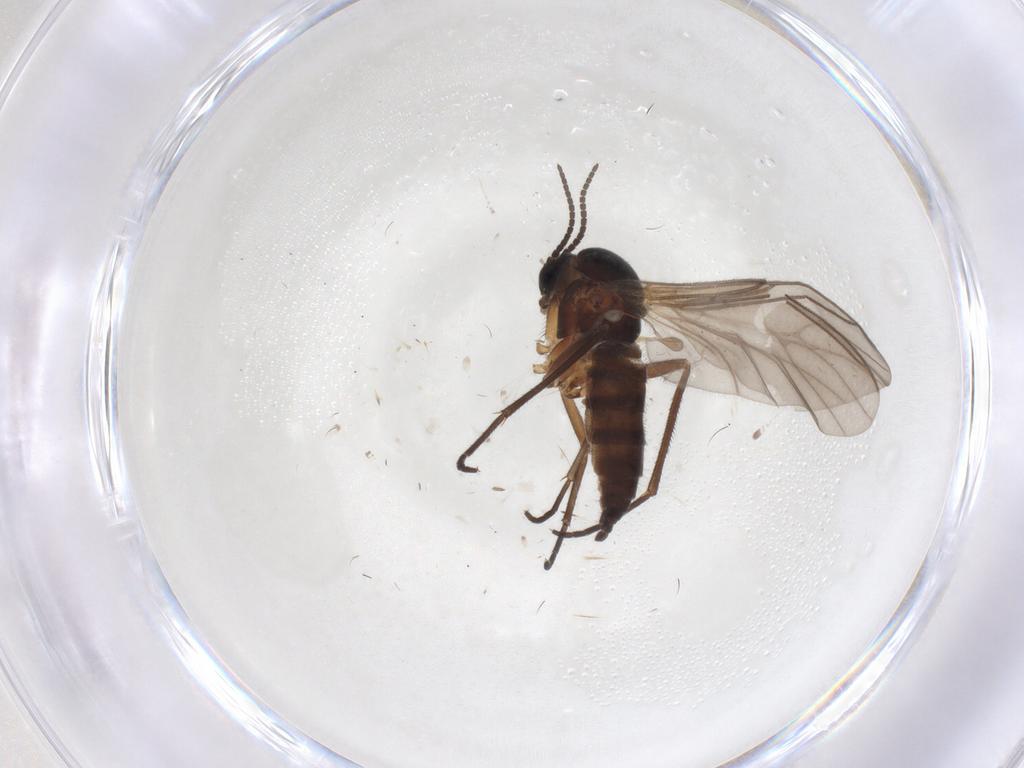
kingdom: Animalia
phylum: Arthropoda
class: Insecta
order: Diptera
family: Sciaridae
